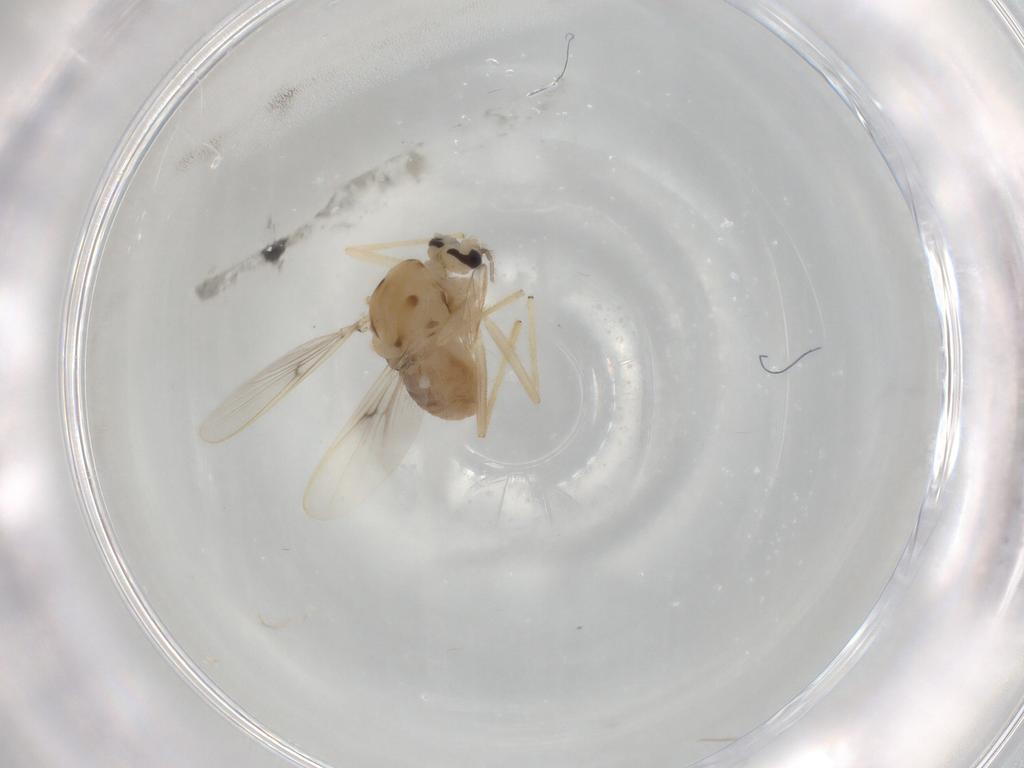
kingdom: Animalia
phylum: Arthropoda
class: Insecta
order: Diptera
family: Chironomidae
